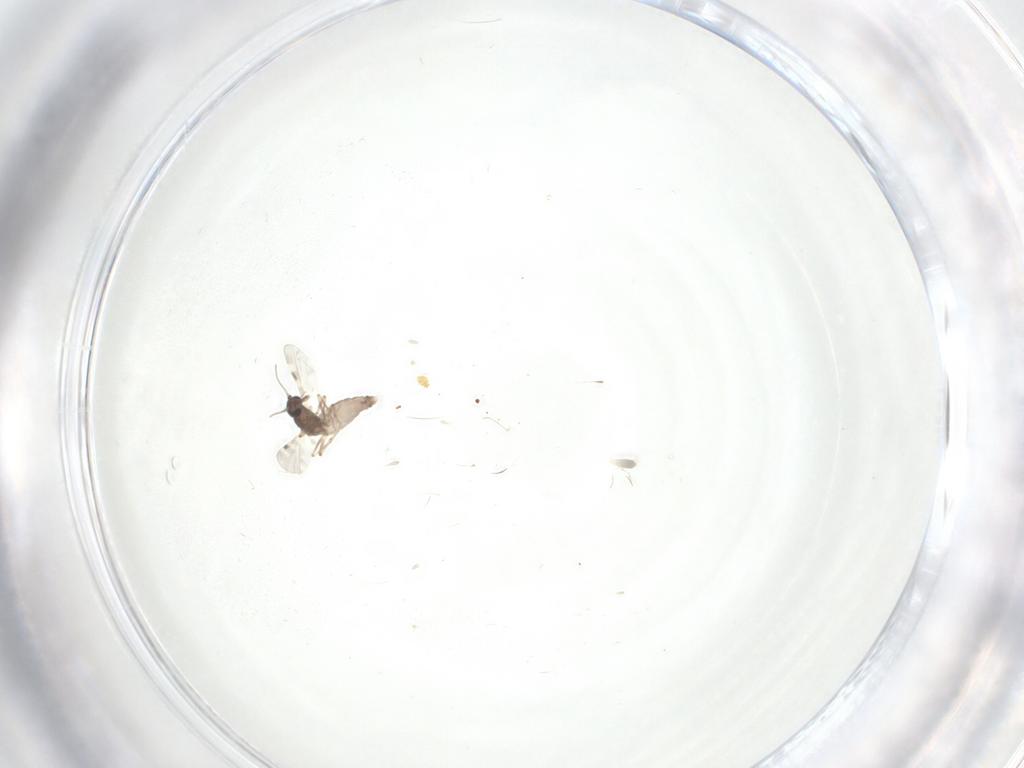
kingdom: Animalia
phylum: Arthropoda
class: Insecta
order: Diptera
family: Dolichopodidae
